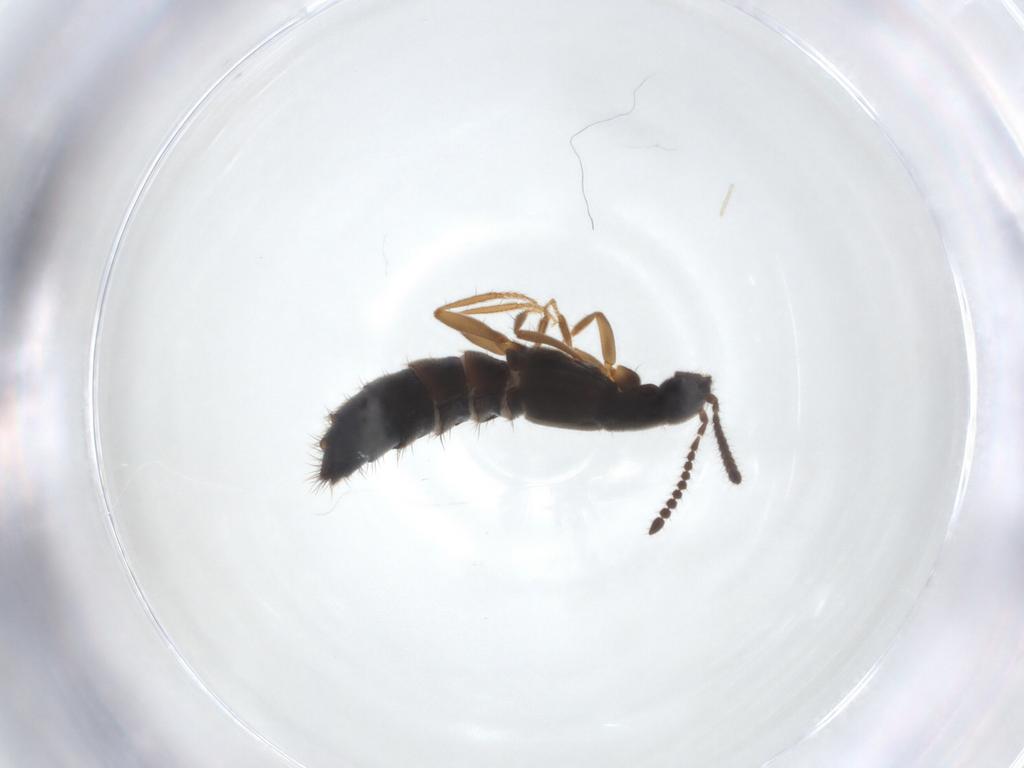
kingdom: Animalia
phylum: Arthropoda
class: Insecta
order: Coleoptera
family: Staphylinidae
